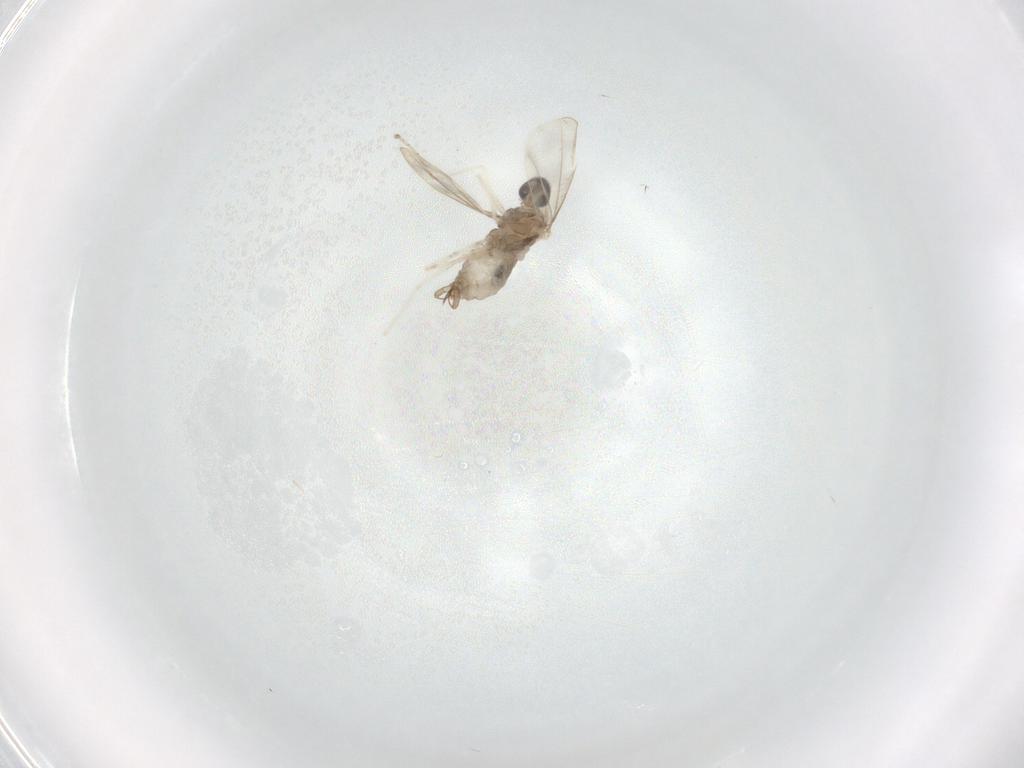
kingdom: Animalia
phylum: Arthropoda
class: Insecta
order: Diptera
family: Cecidomyiidae
